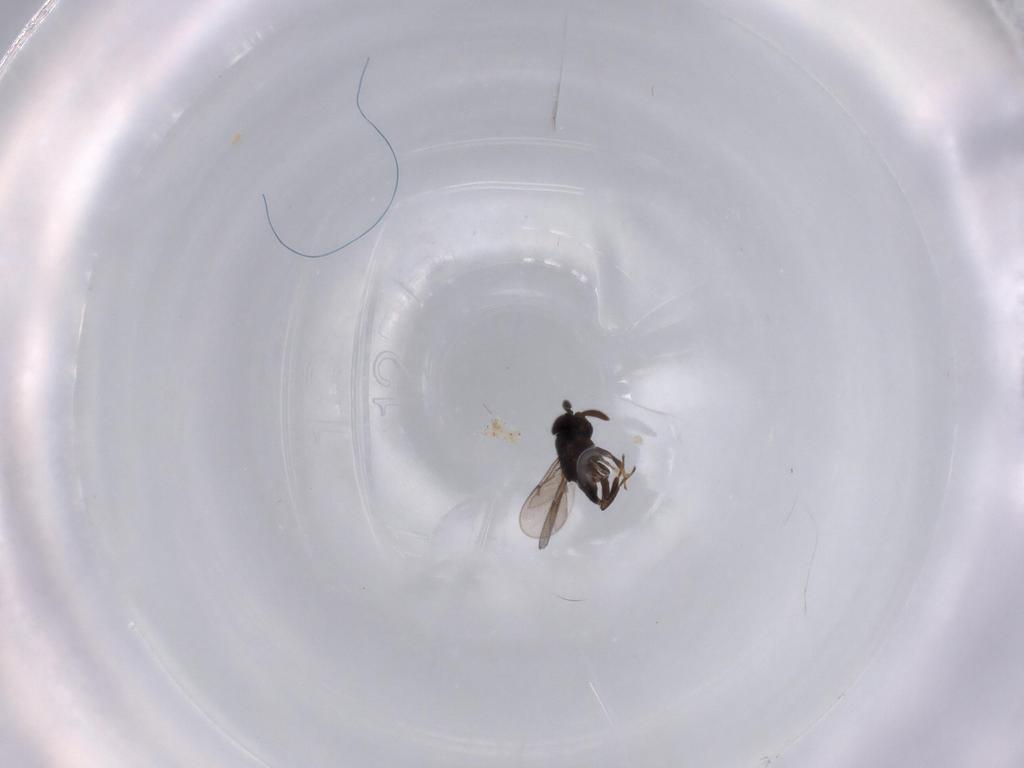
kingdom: Animalia
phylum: Arthropoda
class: Insecta
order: Hymenoptera
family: Encyrtidae
